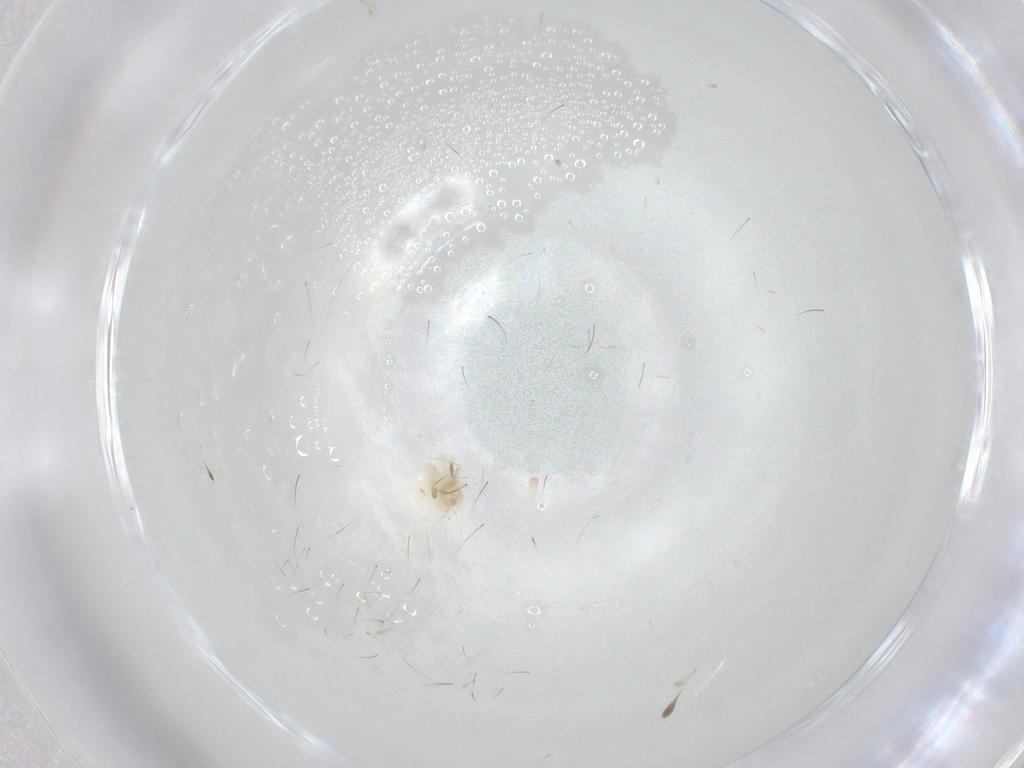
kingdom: Animalia
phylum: Arthropoda
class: Arachnida
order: Trombidiformes
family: Anystidae
